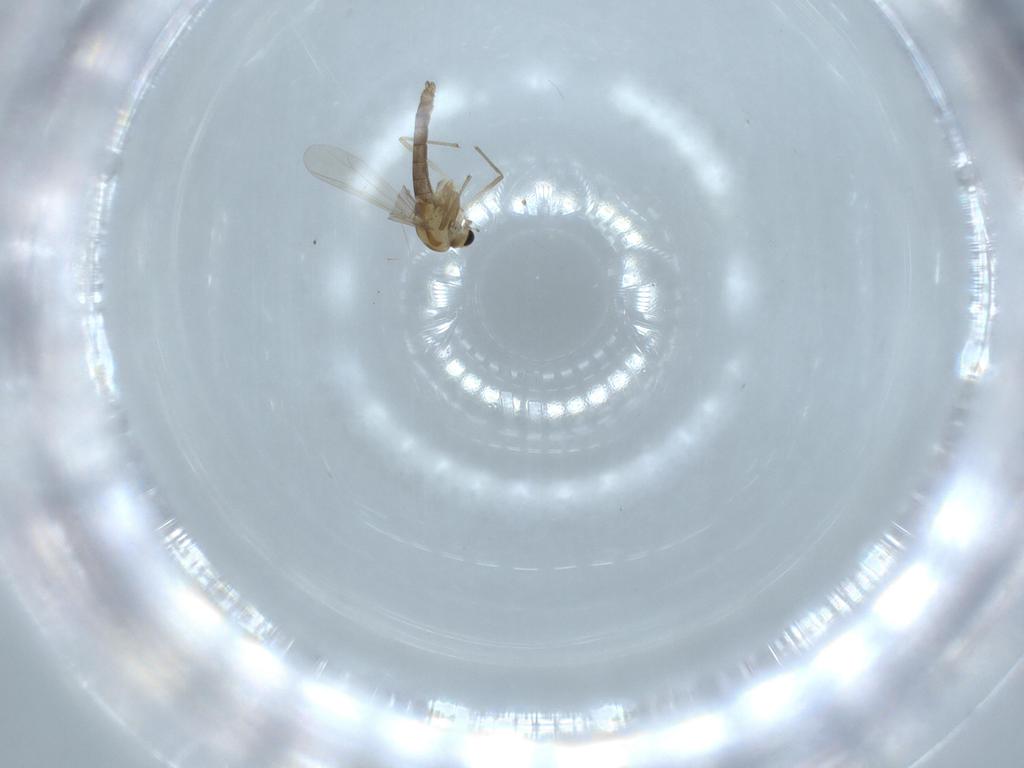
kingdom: Animalia
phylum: Arthropoda
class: Insecta
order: Diptera
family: Chironomidae
